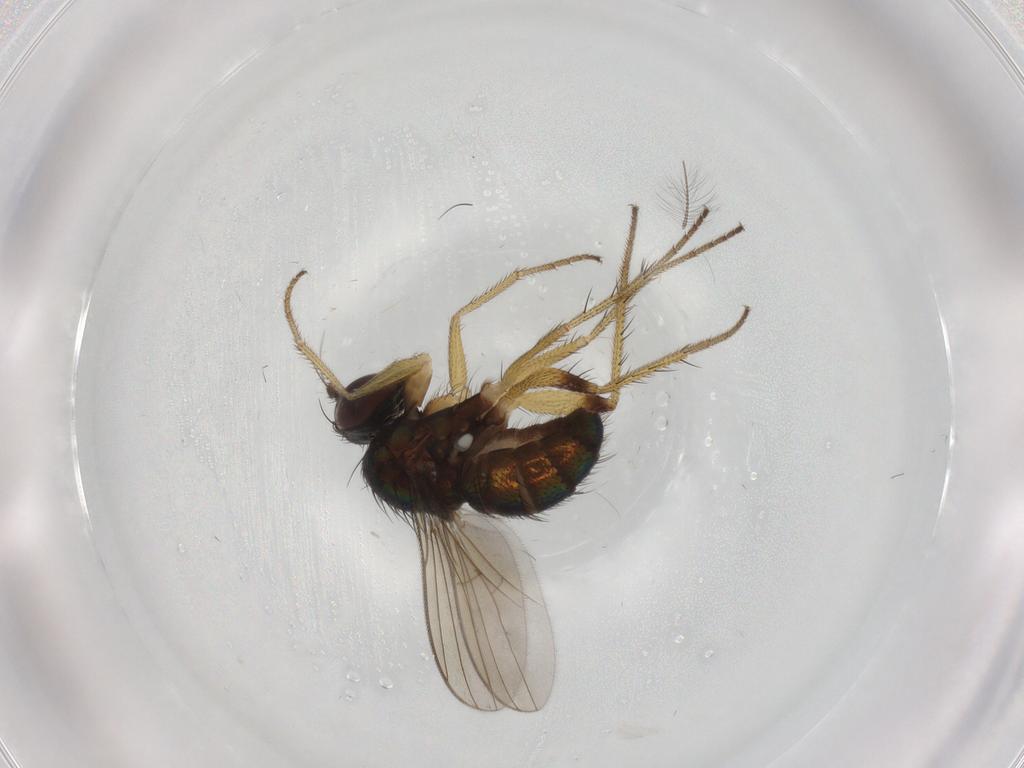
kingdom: Animalia
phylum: Arthropoda
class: Insecta
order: Diptera
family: Dolichopodidae
